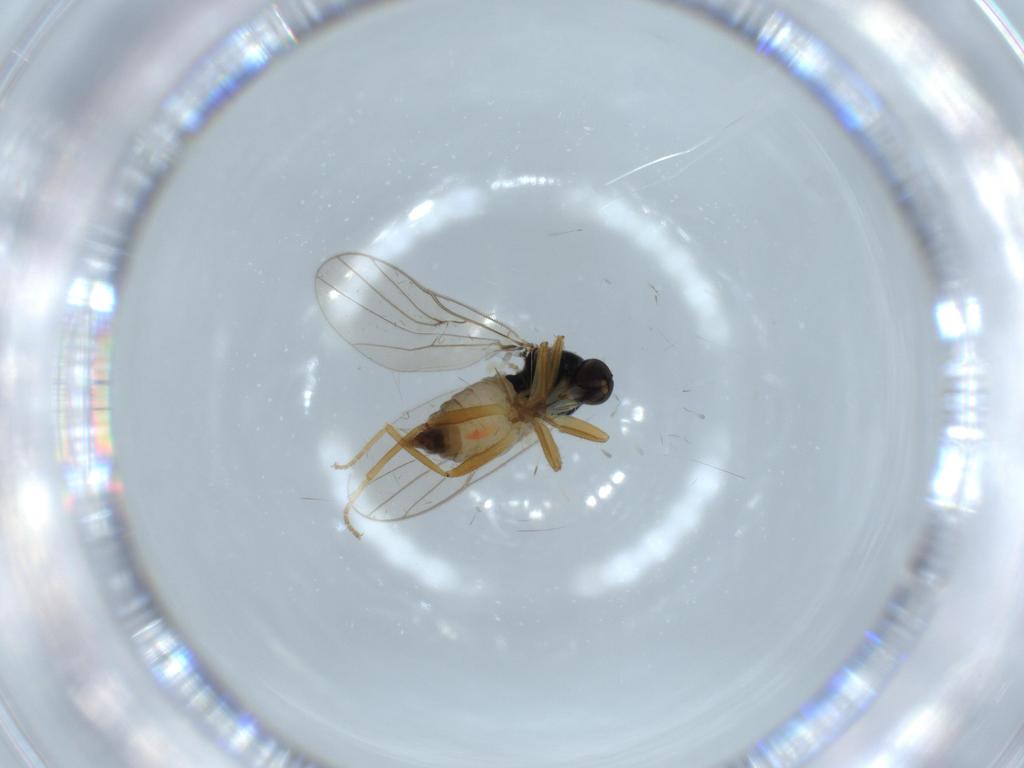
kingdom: Animalia
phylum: Arthropoda
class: Insecta
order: Diptera
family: Hybotidae
